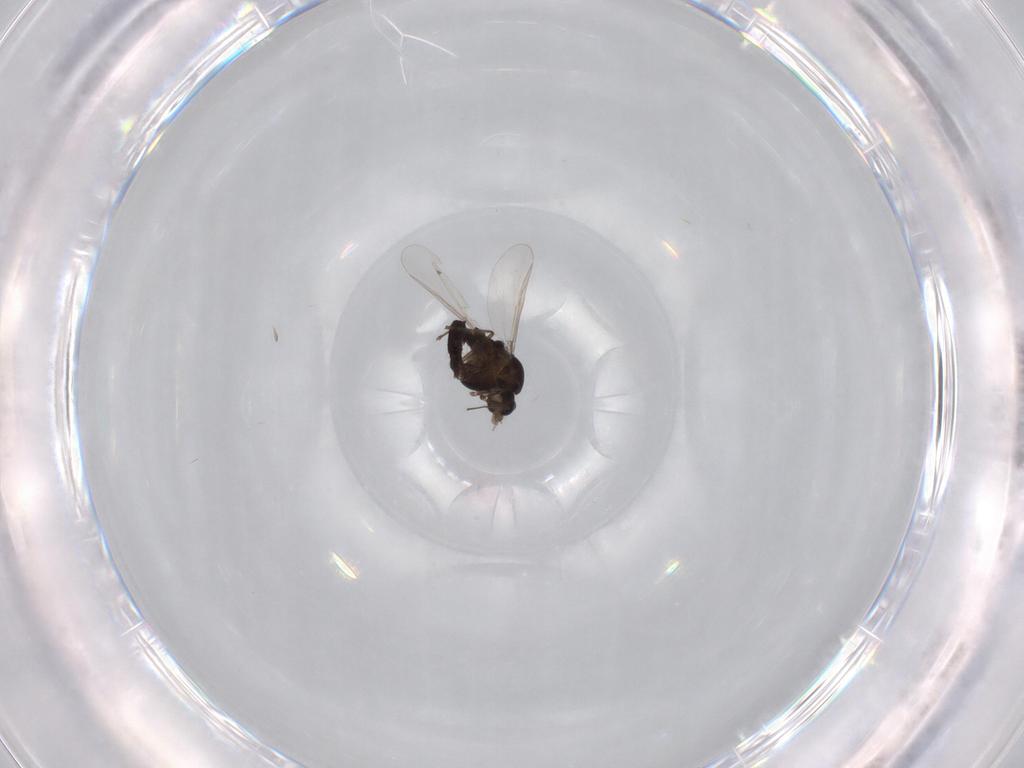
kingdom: Animalia
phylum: Arthropoda
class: Insecta
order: Diptera
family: Chironomidae
